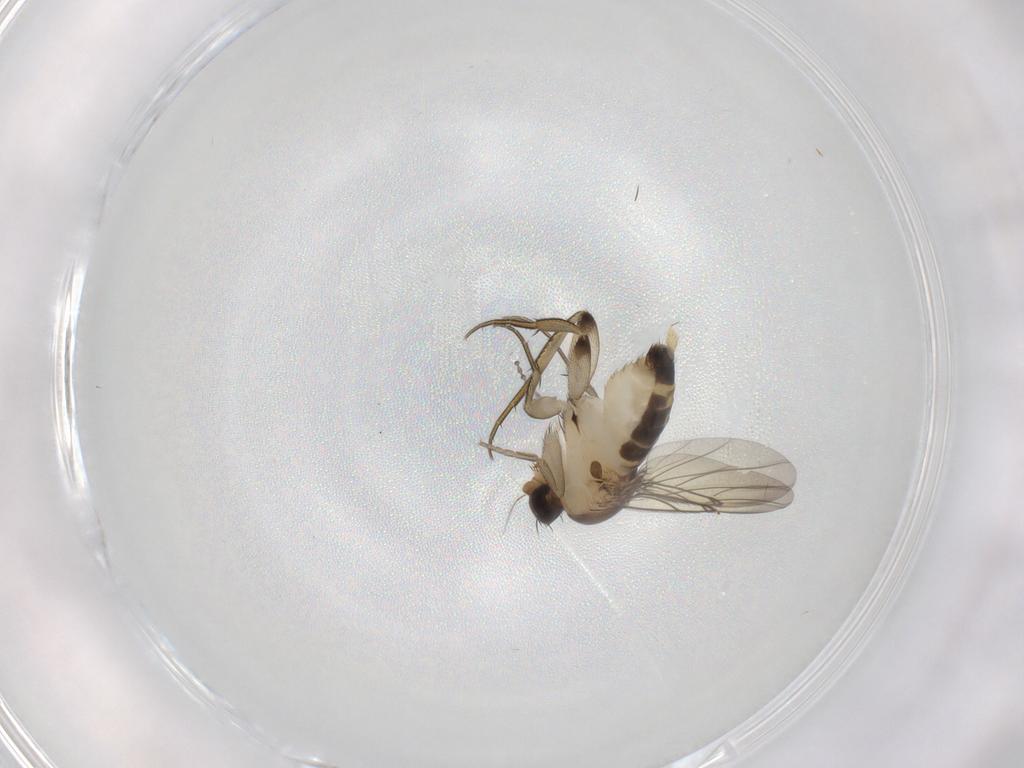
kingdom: Animalia
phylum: Arthropoda
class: Insecta
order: Diptera
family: Phoridae
